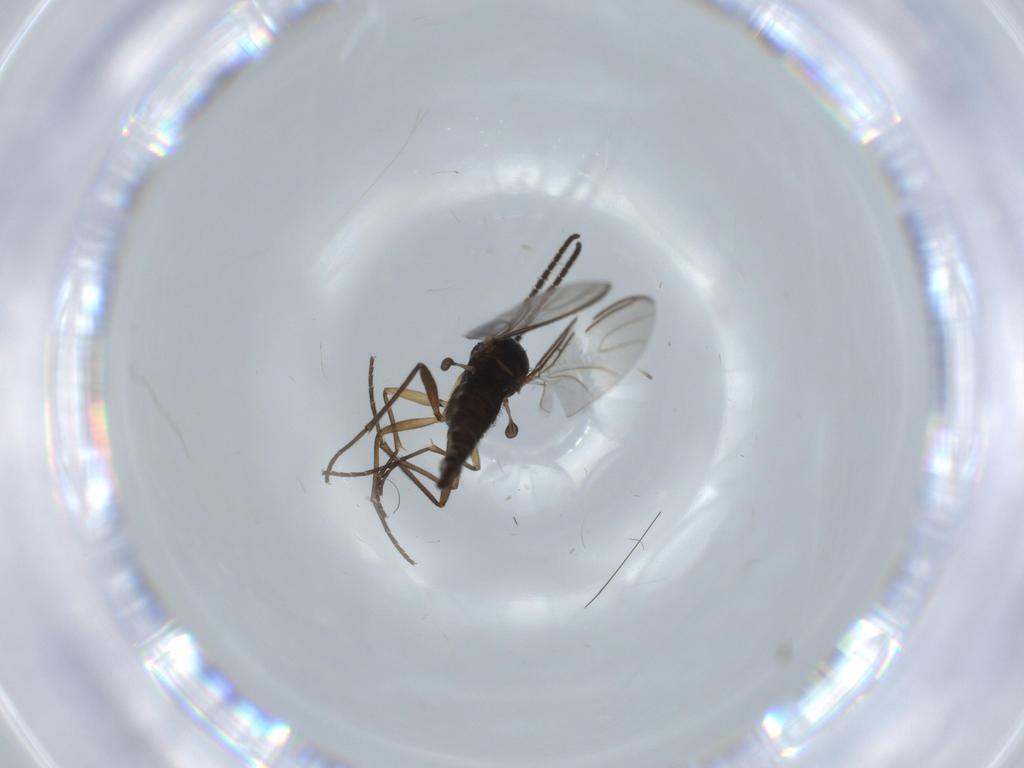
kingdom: Animalia
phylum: Arthropoda
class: Insecta
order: Diptera
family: Sciaridae
